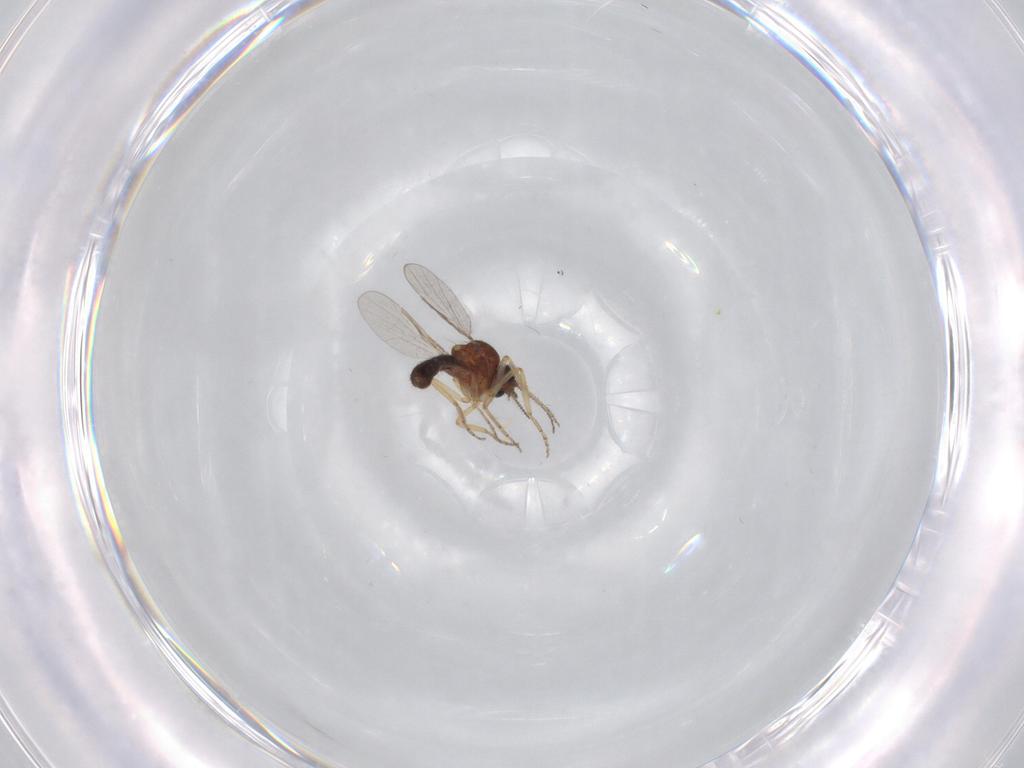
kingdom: Animalia
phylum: Arthropoda
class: Insecta
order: Diptera
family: Ceratopogonidae
